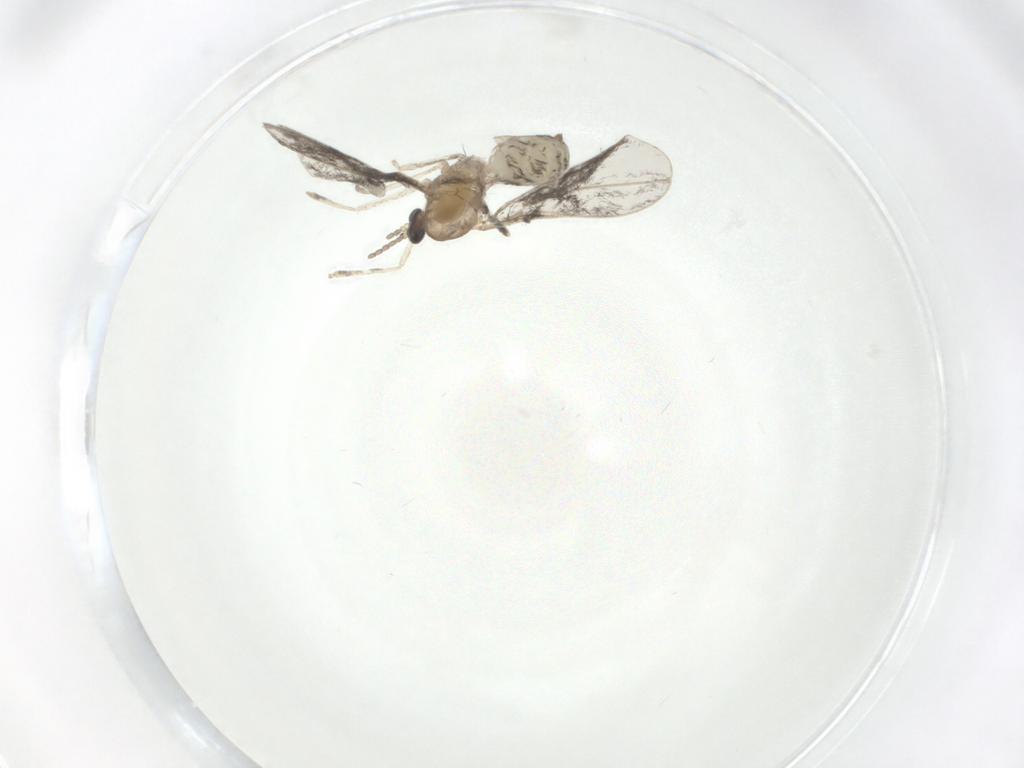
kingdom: Animalia
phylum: Arthropoda
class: Insecta
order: Diptera
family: Cecidomyiidae
